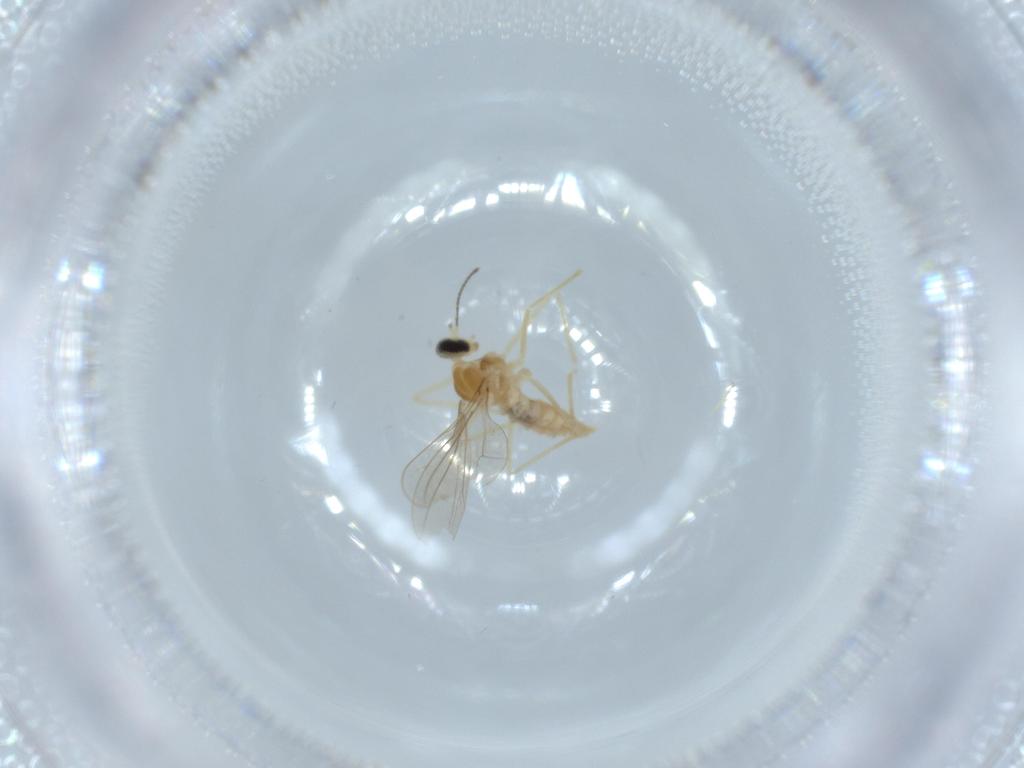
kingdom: Animalia
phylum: Arthropoda
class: Insecta
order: Diptera
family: Cecidomyiidae
